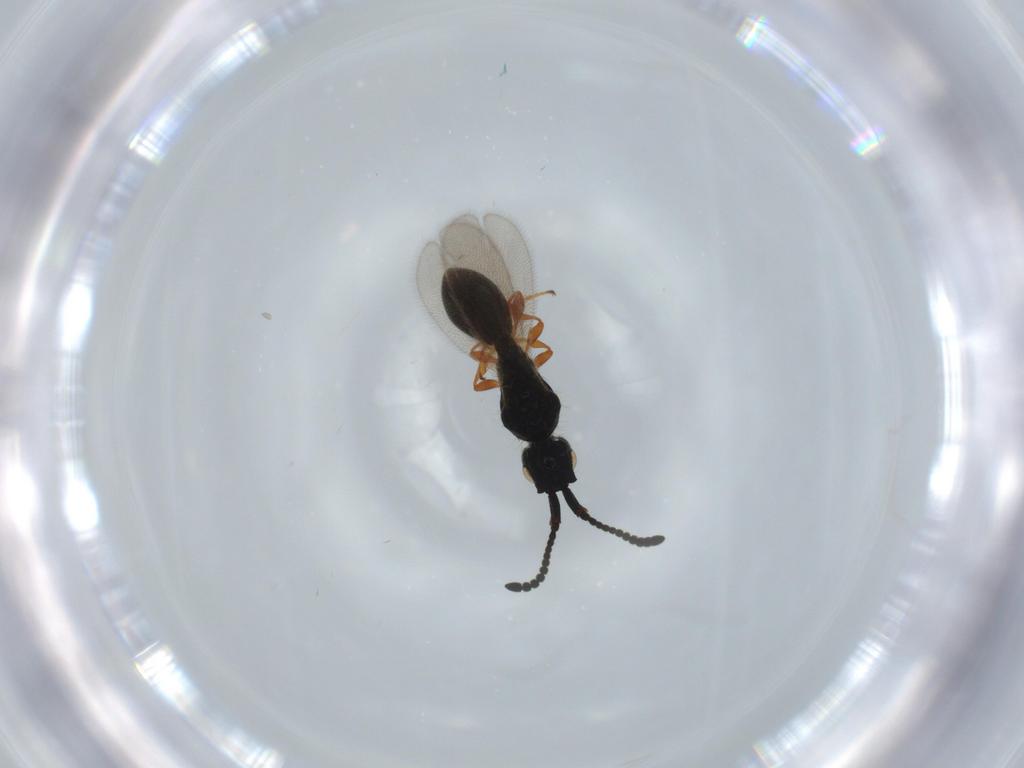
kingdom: Animalia
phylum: Arthropoda
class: Insecta
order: Hymenoptera
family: Diapriidae
